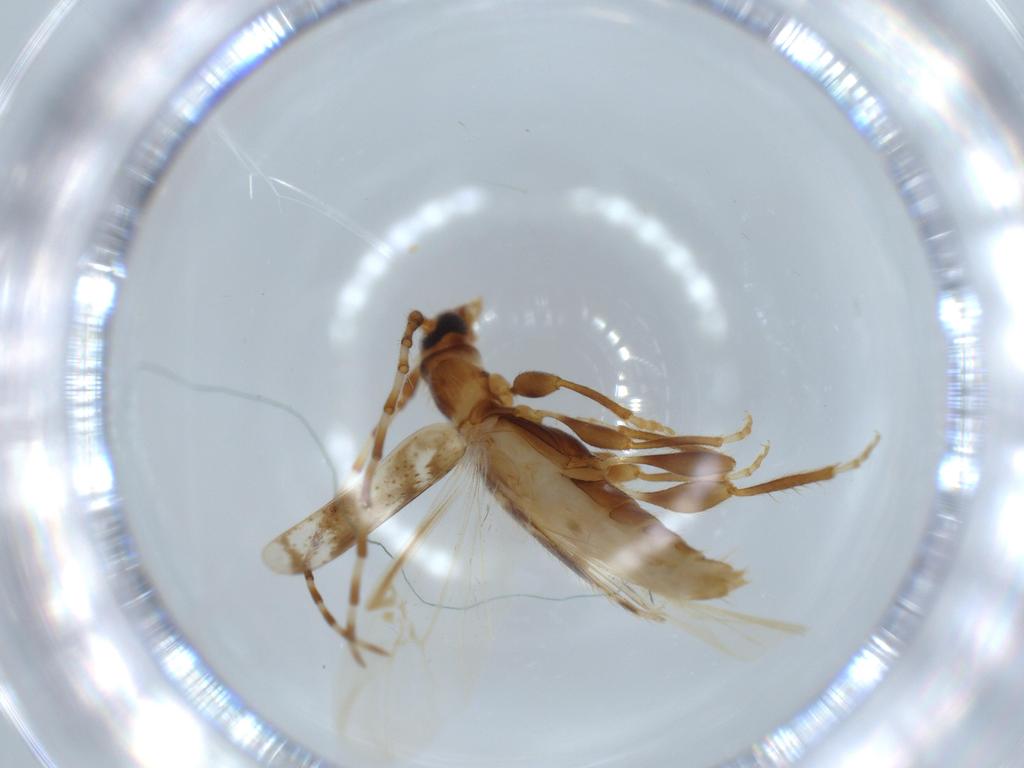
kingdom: Animalia
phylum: Arthropoda
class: Insecta
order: Coleoptera
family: Cerambycidae
